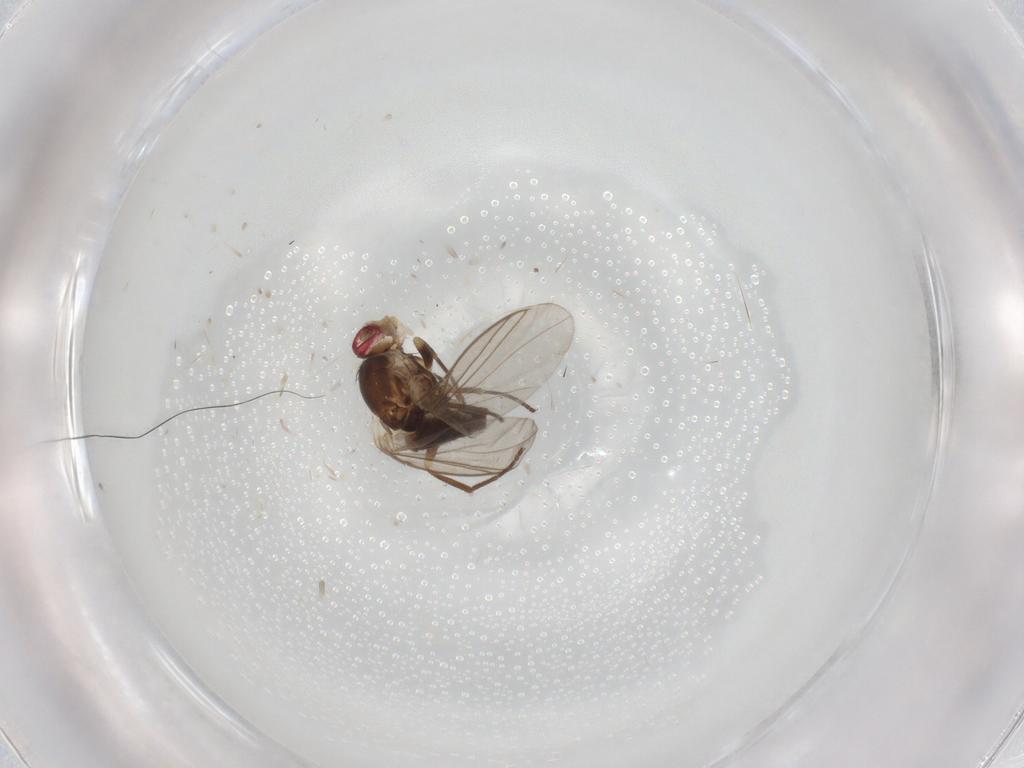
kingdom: Animalia
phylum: Arthropoda
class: Insecta
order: Diptera
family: Agromyzidae
